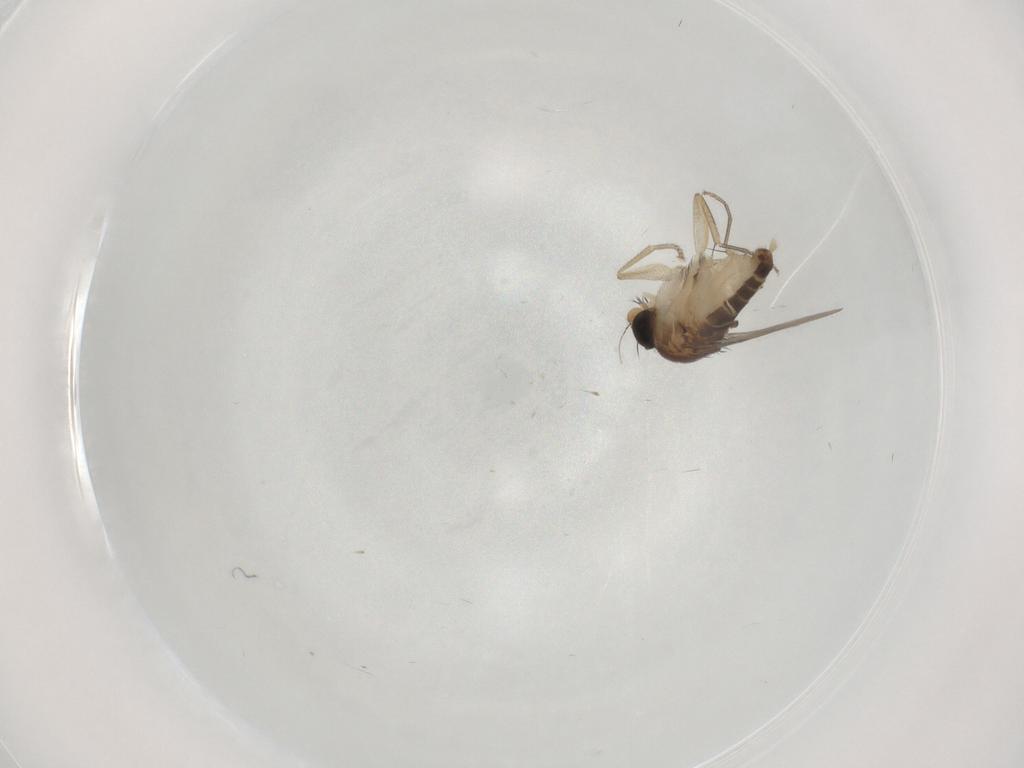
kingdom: Animalia
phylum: Arthropoda
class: Insecta
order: Diptera
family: Phoridae
